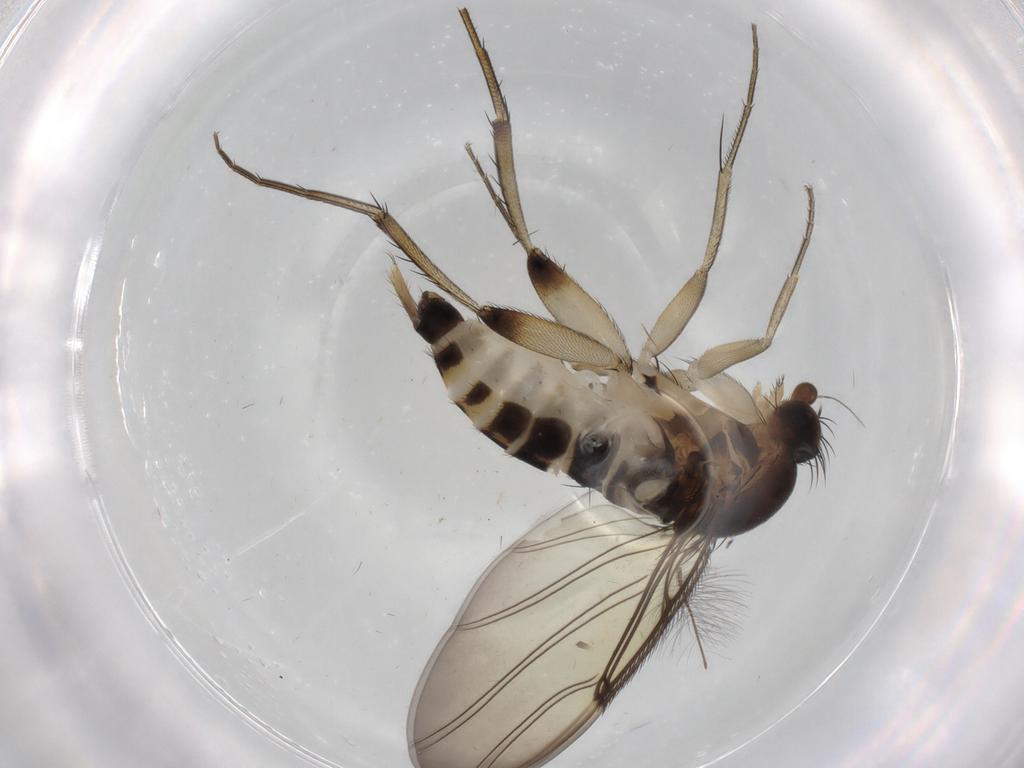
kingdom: Animalia
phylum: Arthropoda
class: Insecta
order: Diptera
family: Phoridae
